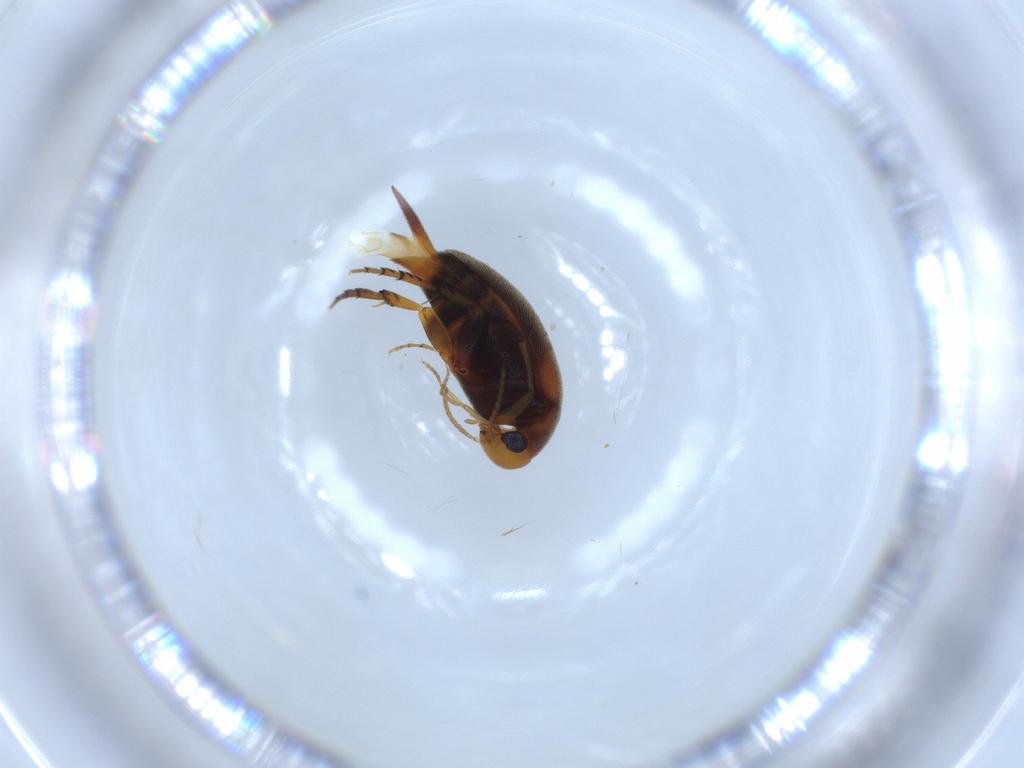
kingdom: Animalia
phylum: Arthropoda
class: Insecta
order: Coleoptera
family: Mordellidae
